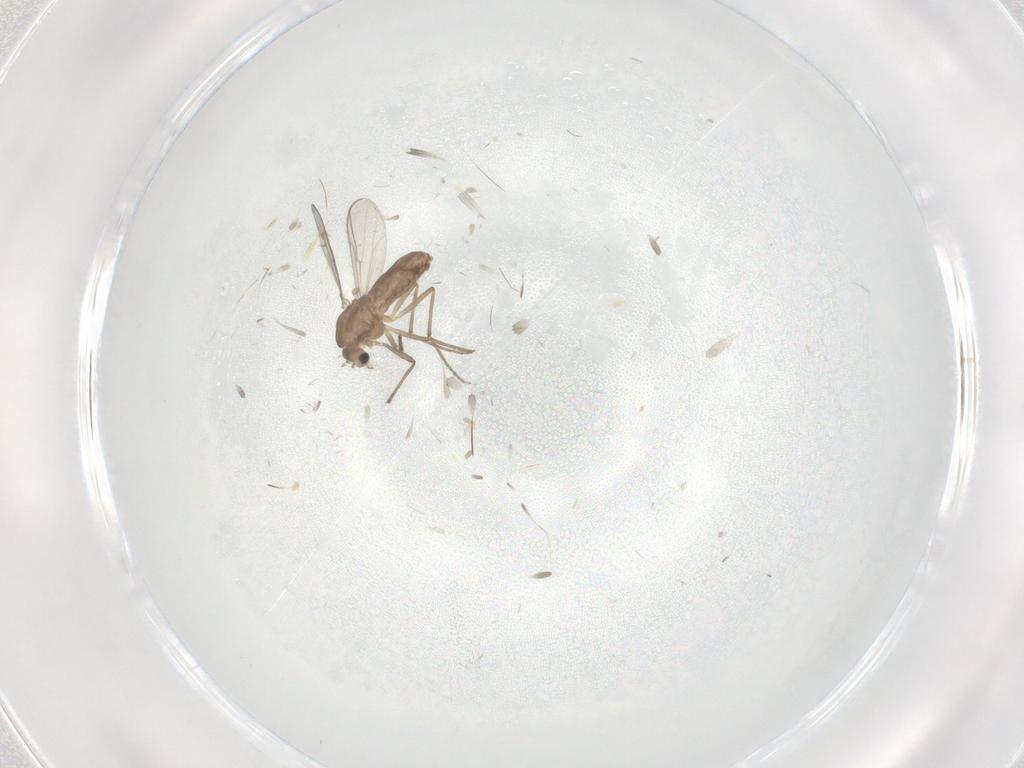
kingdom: Animalia
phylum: Arthropoda
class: Insecta
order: Diptera
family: Chironomidae
